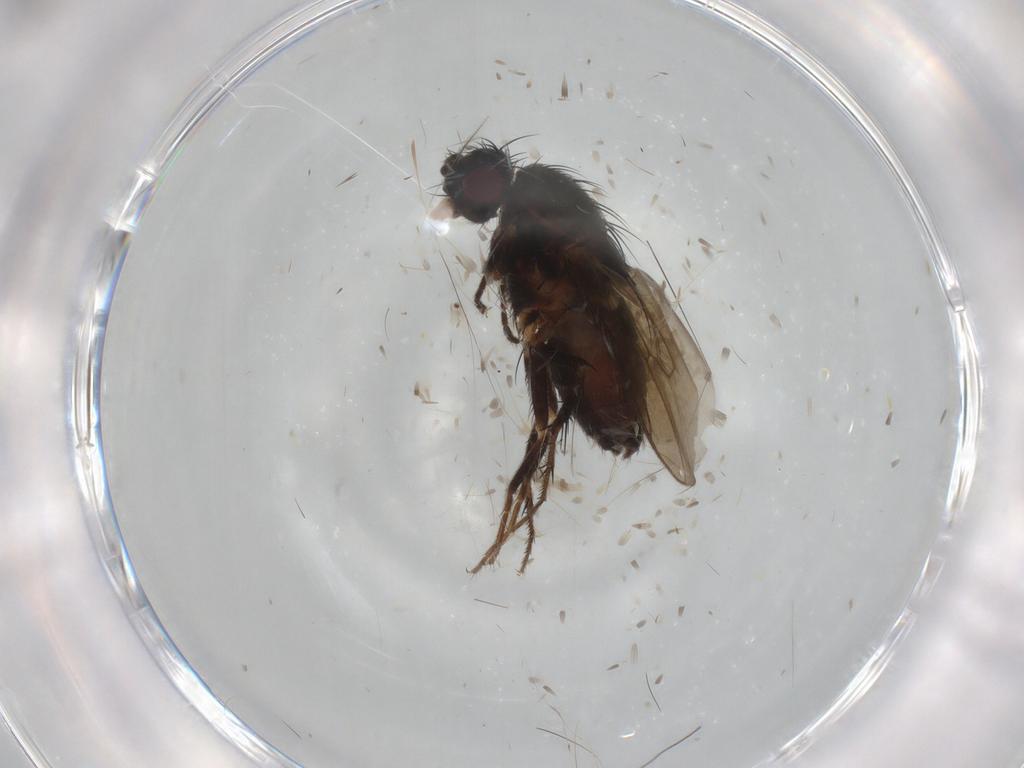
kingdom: Animalia
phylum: Arthropoda
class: Insecta
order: Diptera
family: Sphaeroceridae
